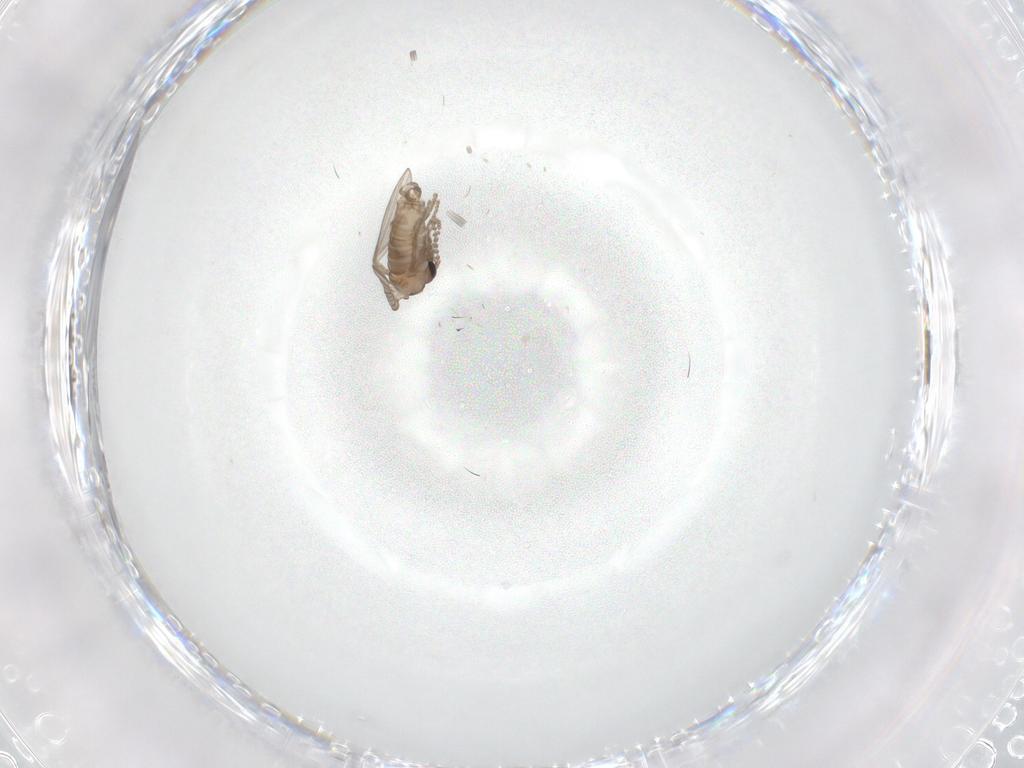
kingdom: Animalia
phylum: Arthropoda
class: Insecta
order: Diptera
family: Psychodidae
